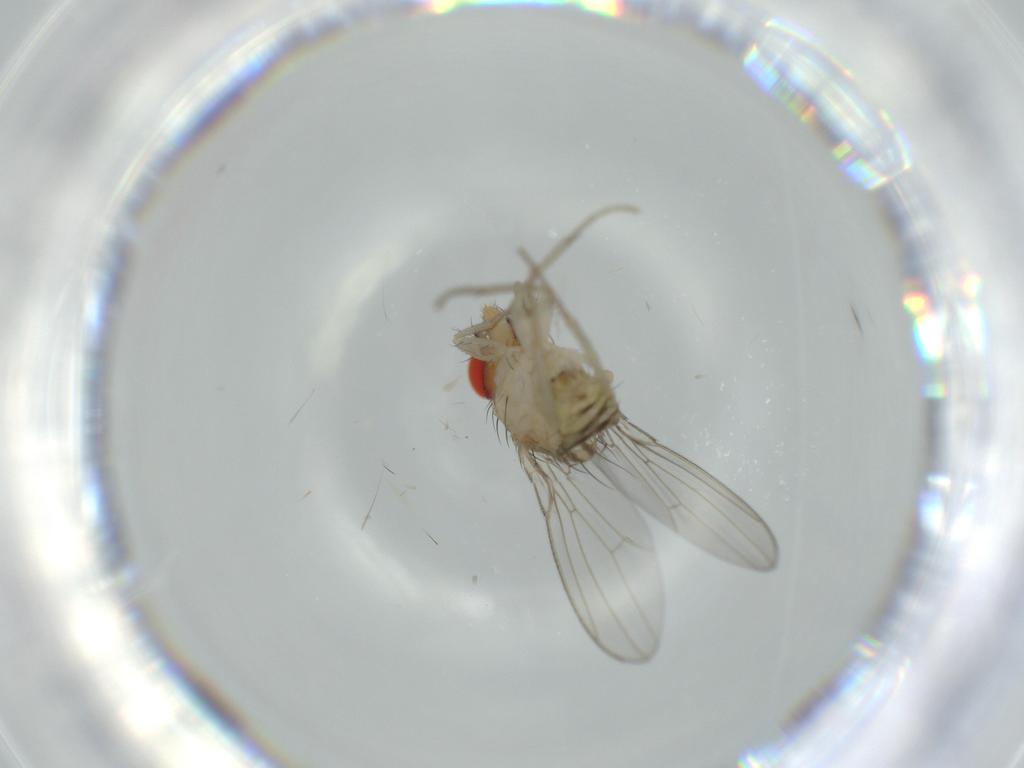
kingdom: Animalia
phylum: Arthropoda
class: Insecta
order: Diptera
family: Drosophilidae
